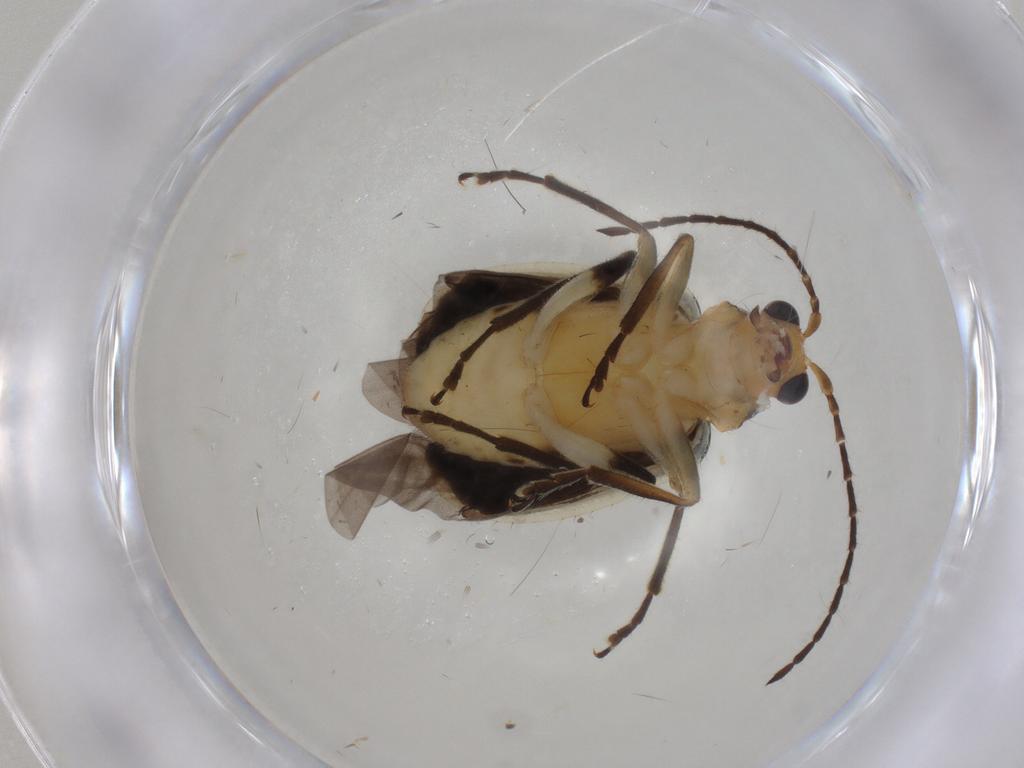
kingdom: Animalia
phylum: Arthropoda
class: Insecta
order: Coleoptera
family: Chrysomelidae
